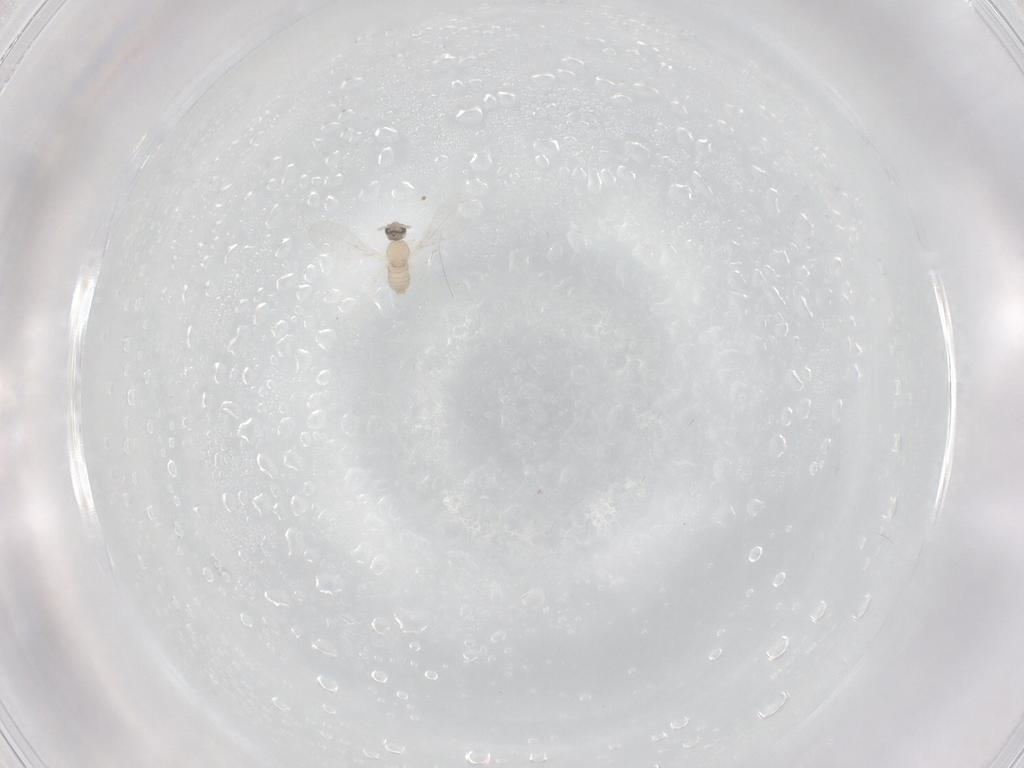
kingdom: Animalia
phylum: Arthropoda
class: Insecta
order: Diptera
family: Cecidomyiidae
